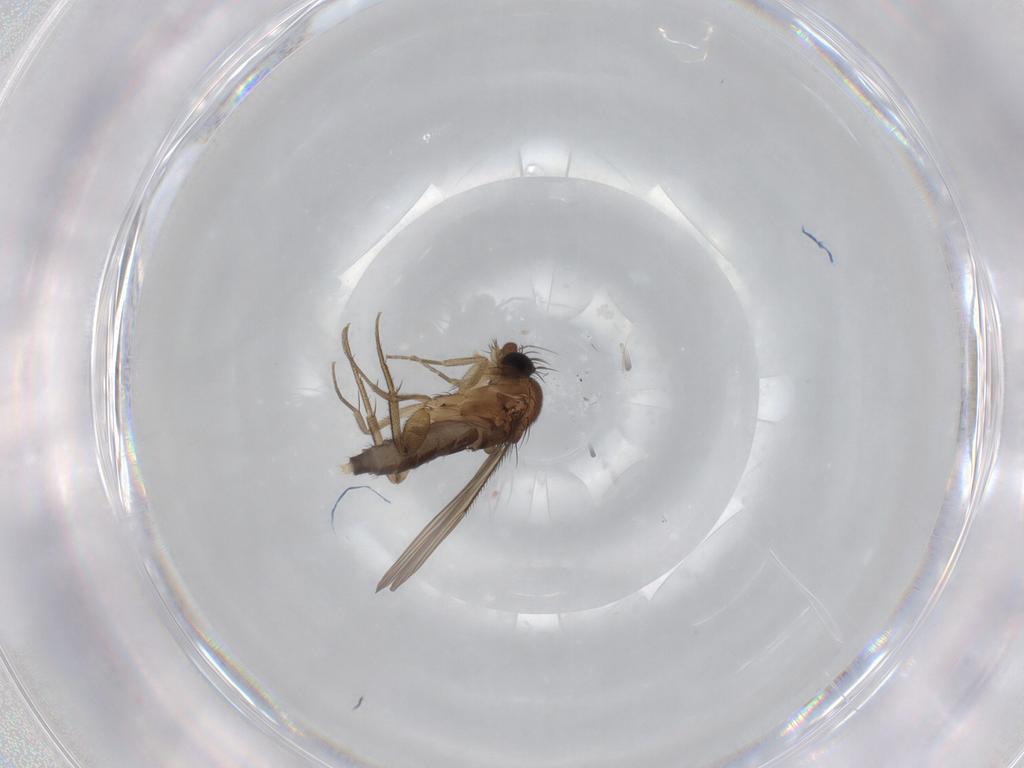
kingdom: Animalia
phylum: Arthropoda
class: Insecta
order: Diptera
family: Phoridae
